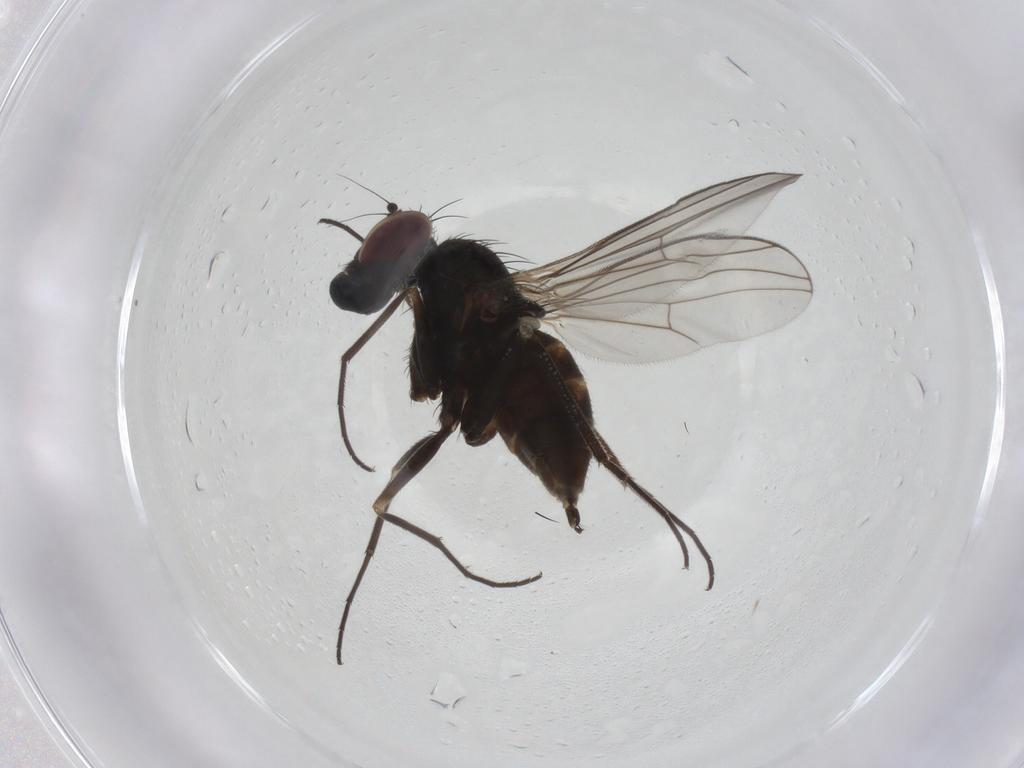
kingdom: Animalia
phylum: Arthropoda
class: Insecta
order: Diptera
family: Dolichopodidae
